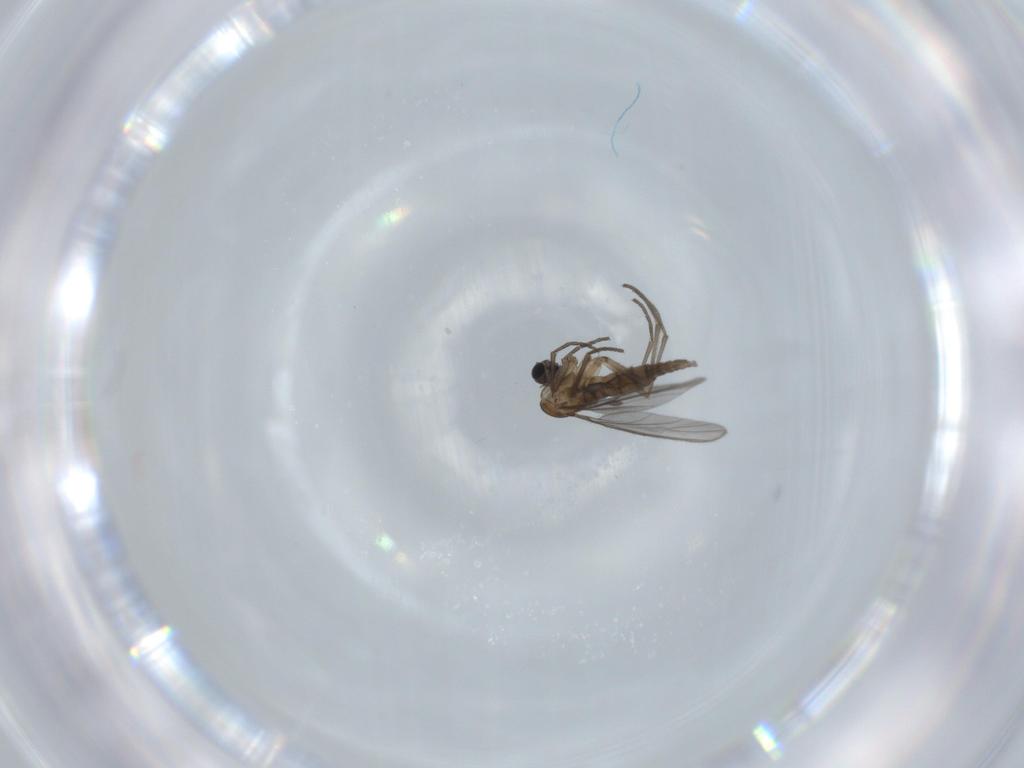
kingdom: Animalia
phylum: Arthropoda
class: Insecta
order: Diptera
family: Sciaridae
